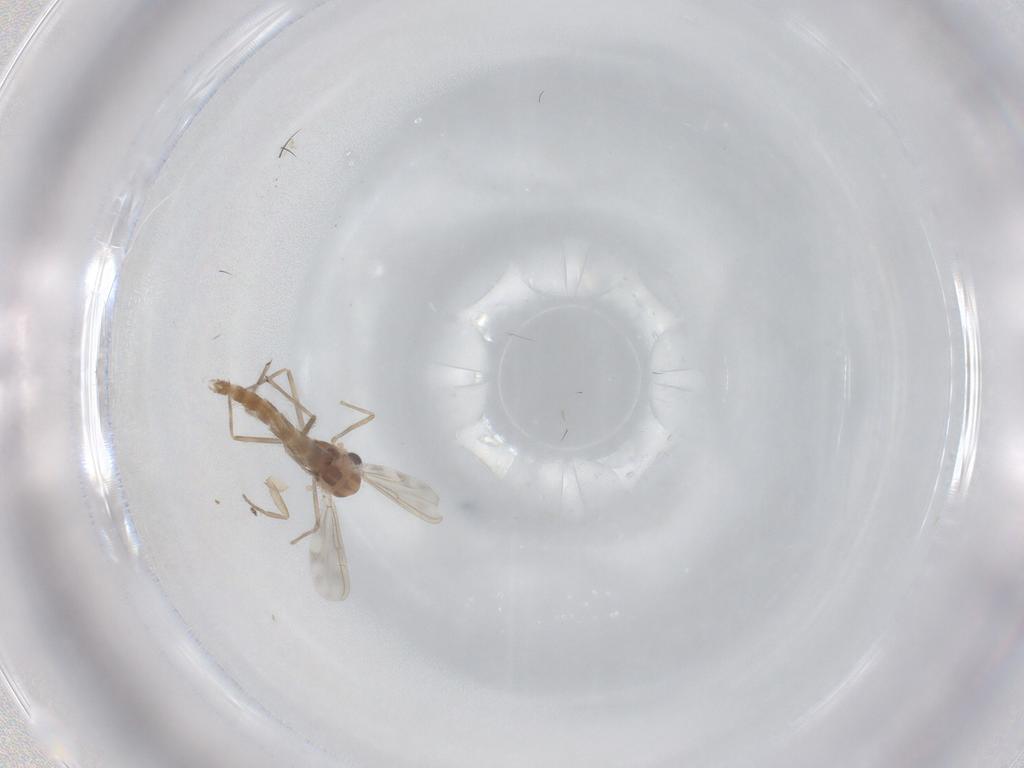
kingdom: Animalia
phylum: Arthropoda
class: Insecta
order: Diptera
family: Chironomidae
